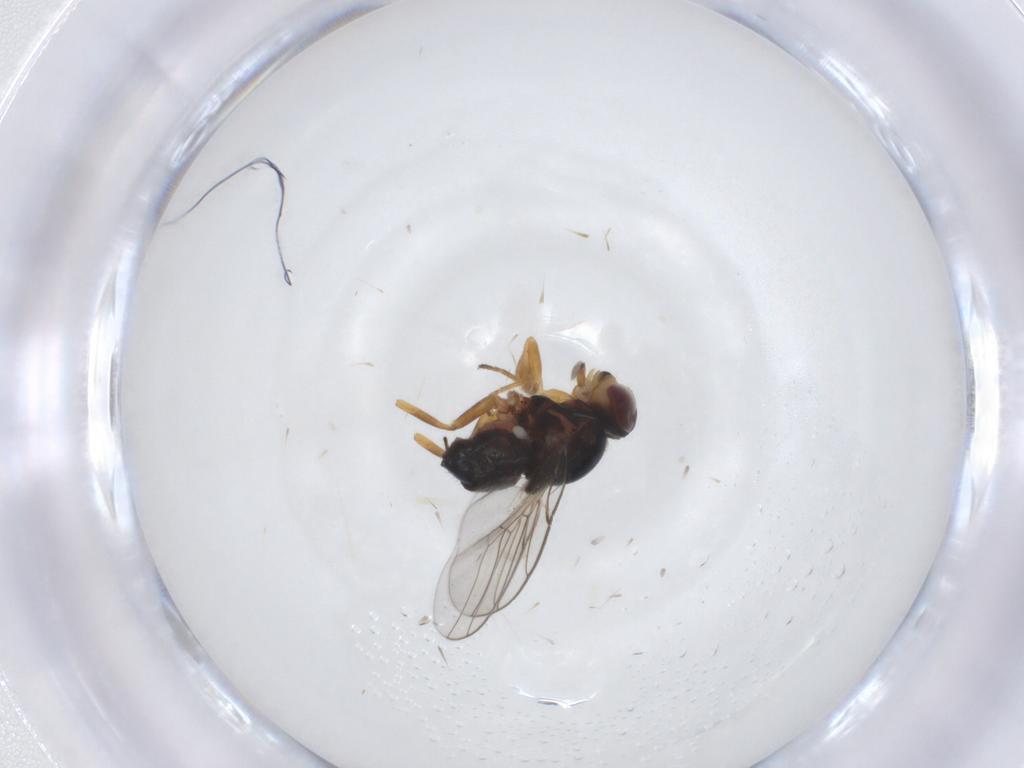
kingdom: Animalia
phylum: Arthropoda
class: Insecta
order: Diptera
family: Chloropidae
